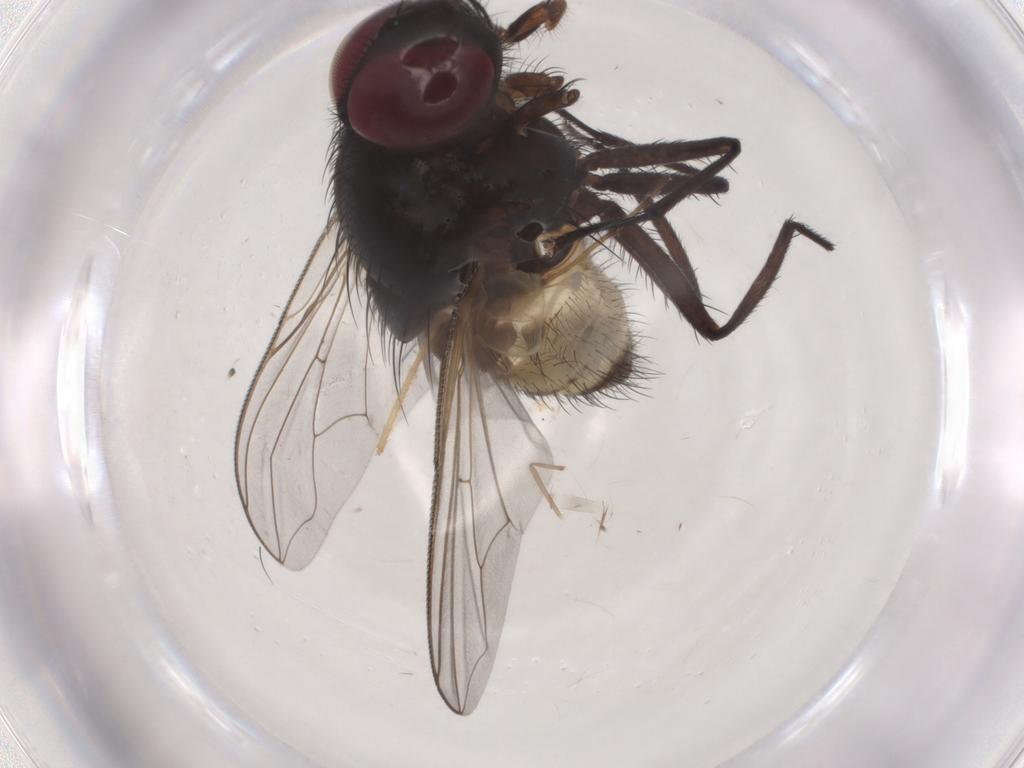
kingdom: Animalia
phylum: Arthropoda
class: Insecta
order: Diptera
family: Chironomidae
